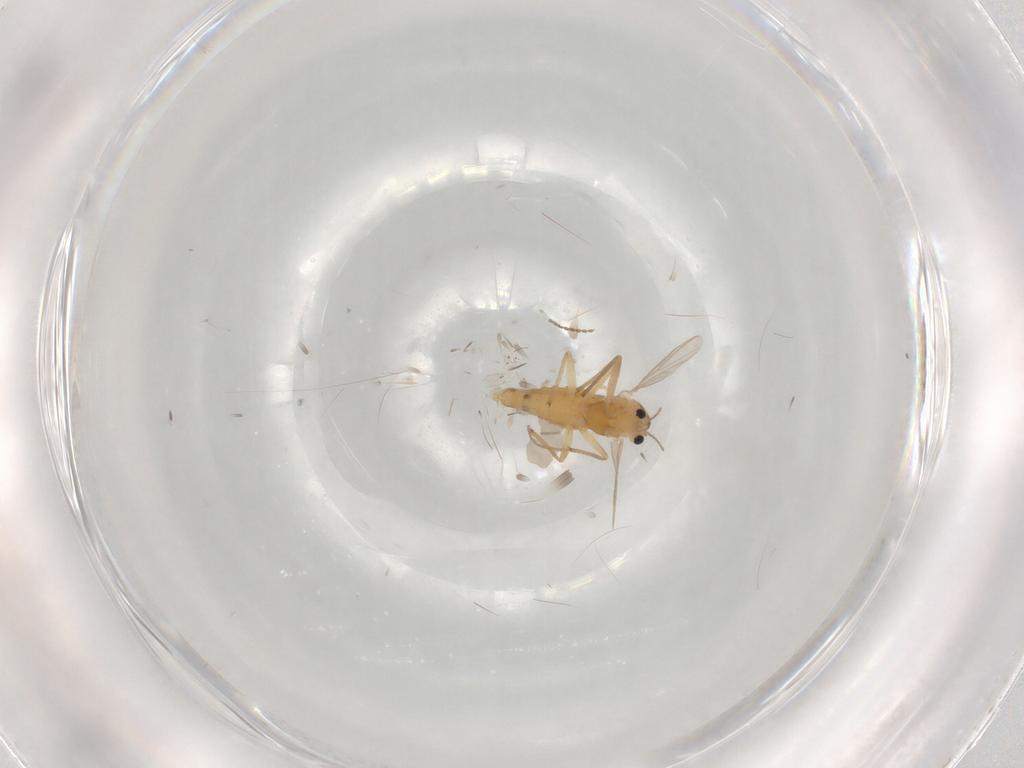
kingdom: Animalia
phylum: Arthropoda
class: Insecta
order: Diptera
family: Chironomidae
